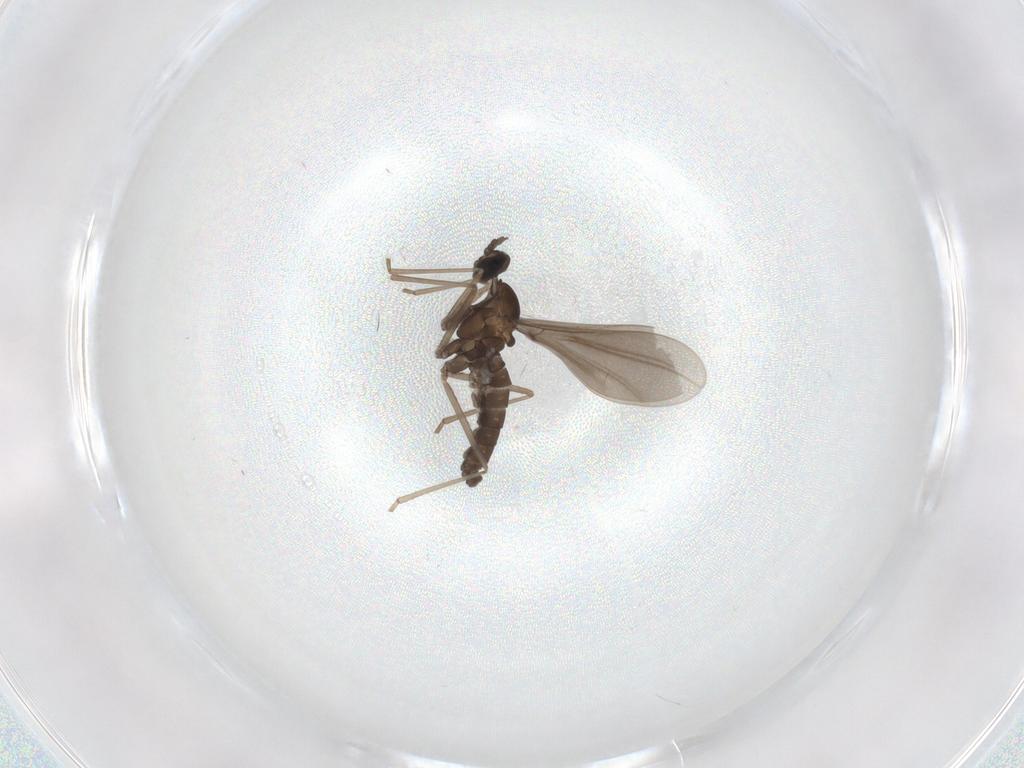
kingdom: Animalia
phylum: Arthropoda
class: Insecta
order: Diptera
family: Cecidomyiidae
